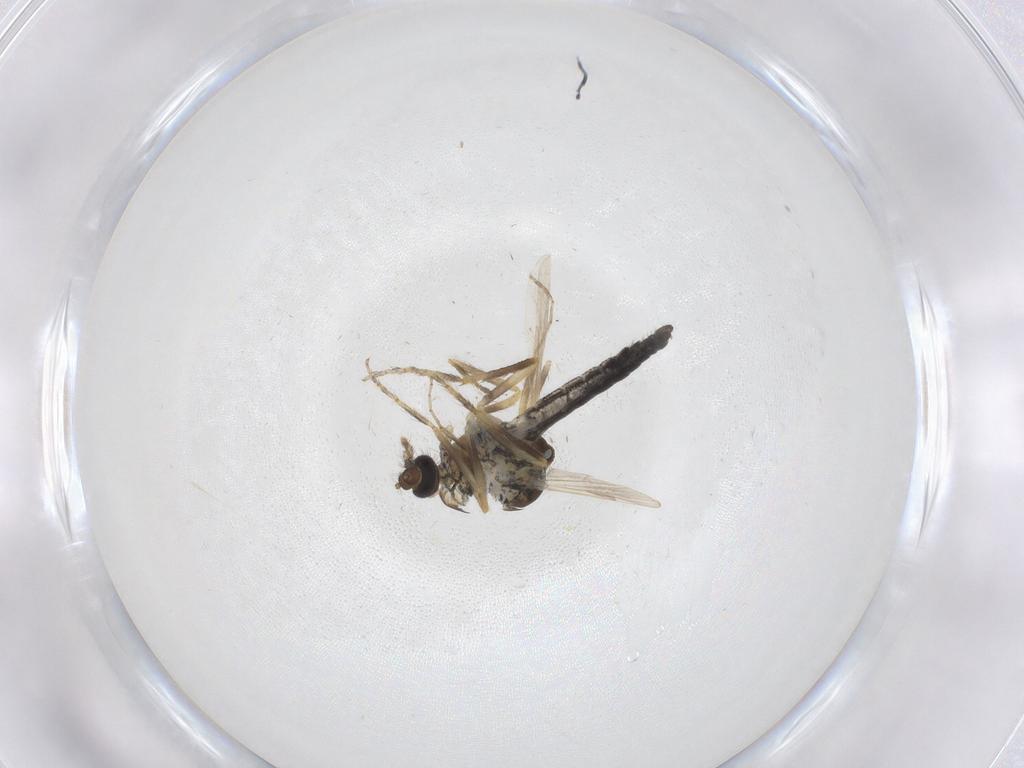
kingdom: Animalia
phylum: Arthropoda
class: Insecta
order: Diptera
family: Ceratopogonidae
